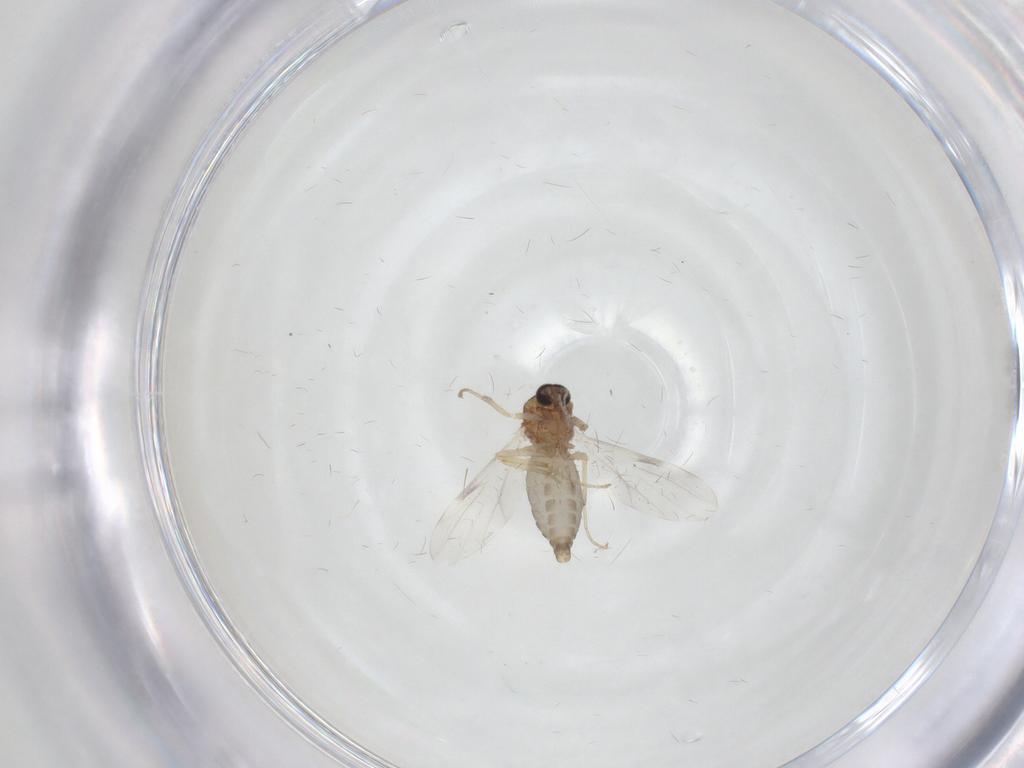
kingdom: Animalia
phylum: Arthropoda
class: Insecta
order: Diptera
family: Ceratopogonidae
